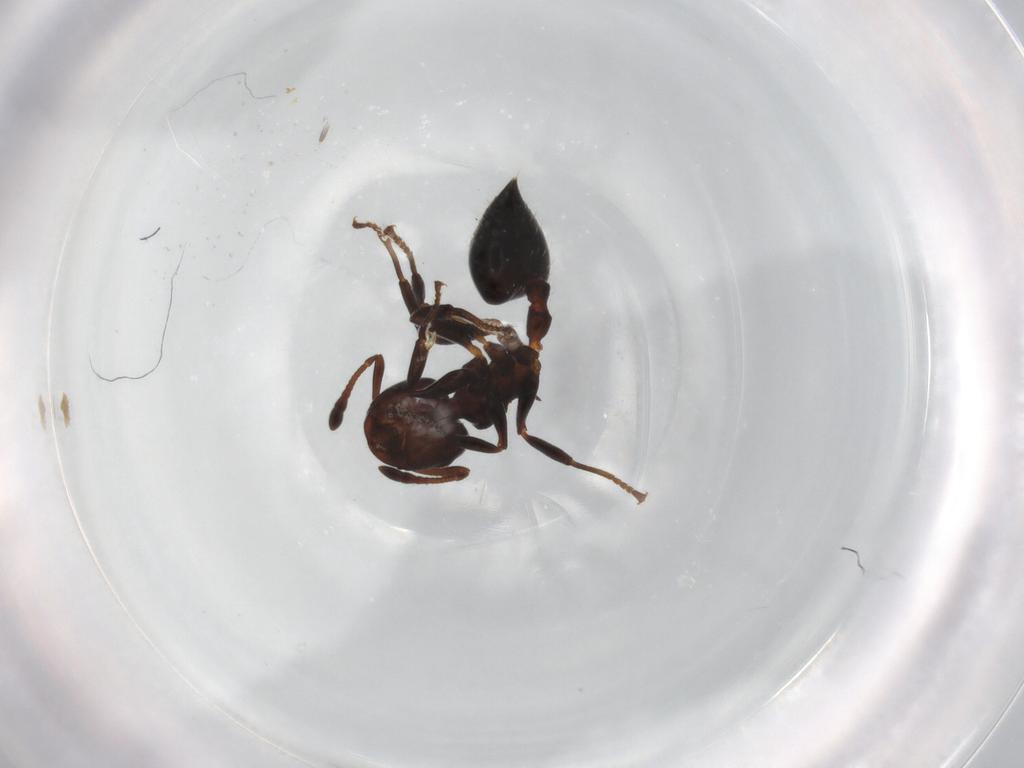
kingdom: Animalia
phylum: Arthropoda
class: Insecta
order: Hymenoptera
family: Formicidae
